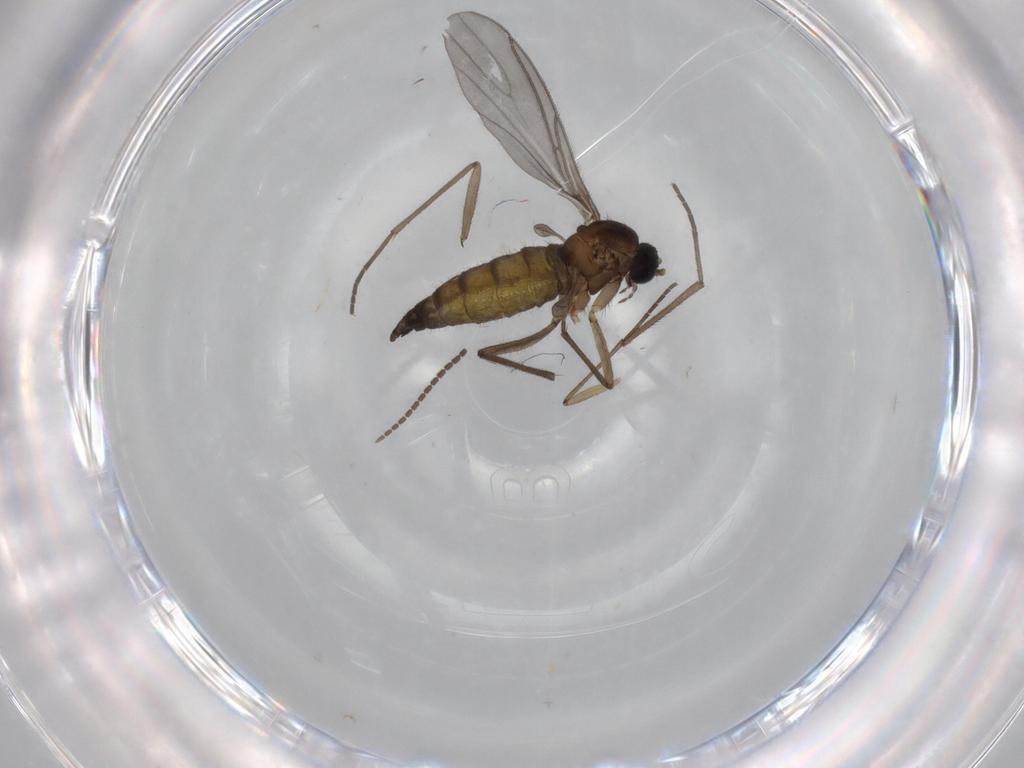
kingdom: Animalia
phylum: Arthropoda
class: Insecta
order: Diptera
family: Sciaridae
